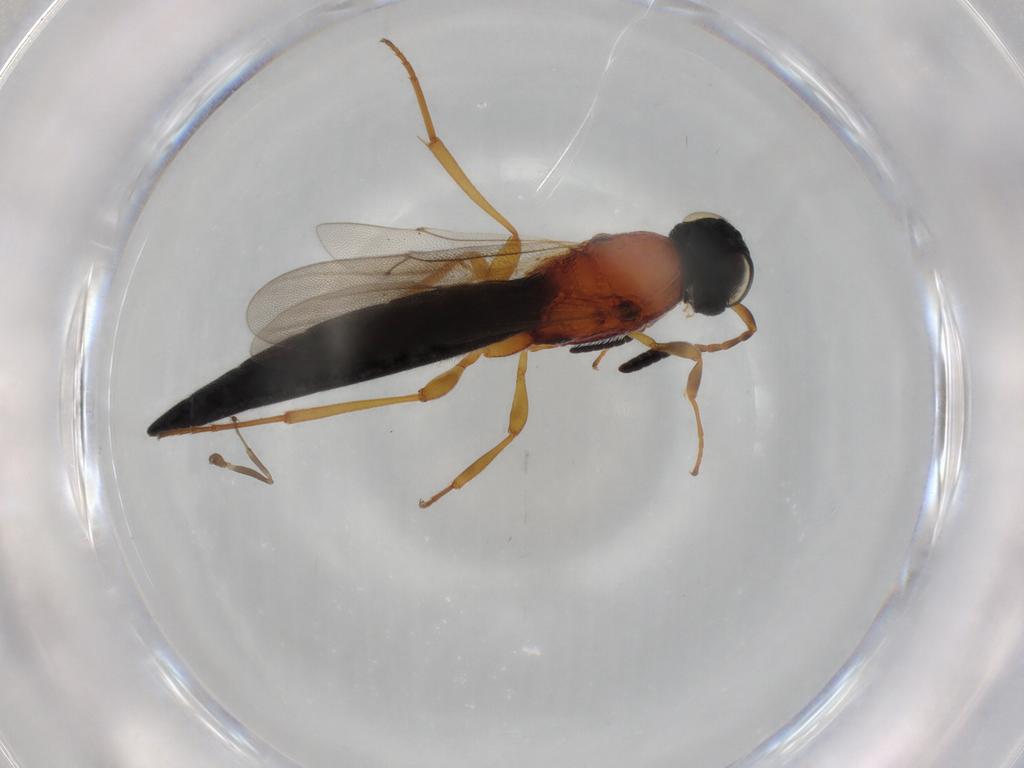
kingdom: Animalia
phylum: Arthropoda
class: Insecta
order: Hymenoptera
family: Scelionidae
